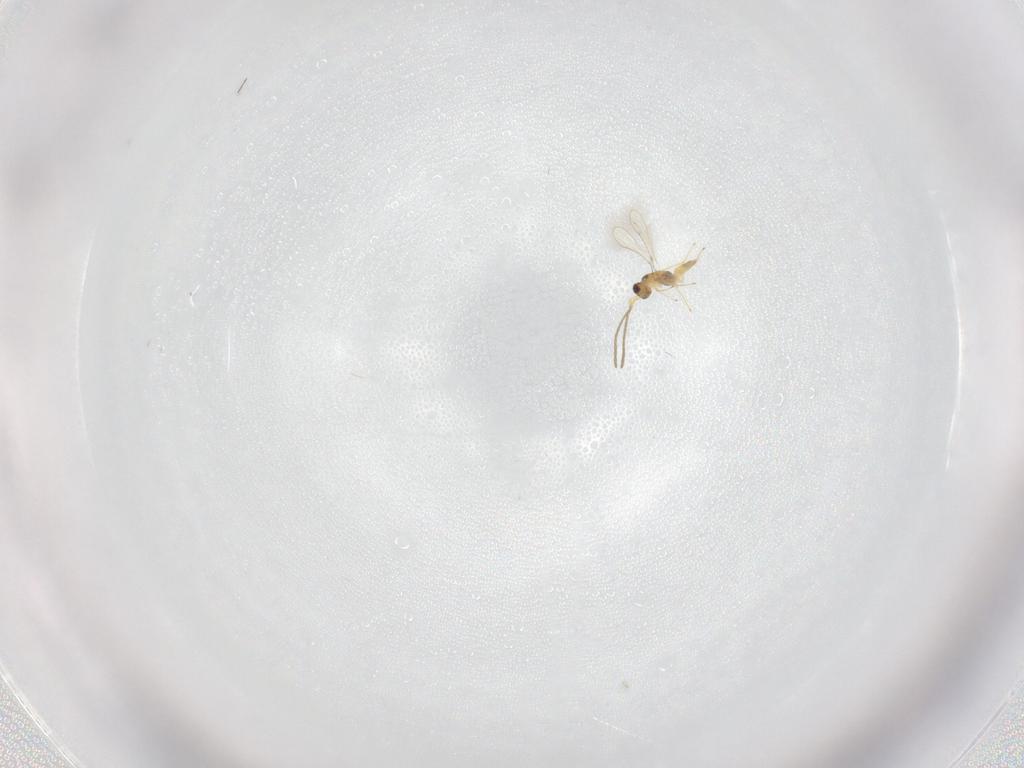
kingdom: Animalia
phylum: Arthropoda
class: Insecta
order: Hymenoptera
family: Mymaridae
